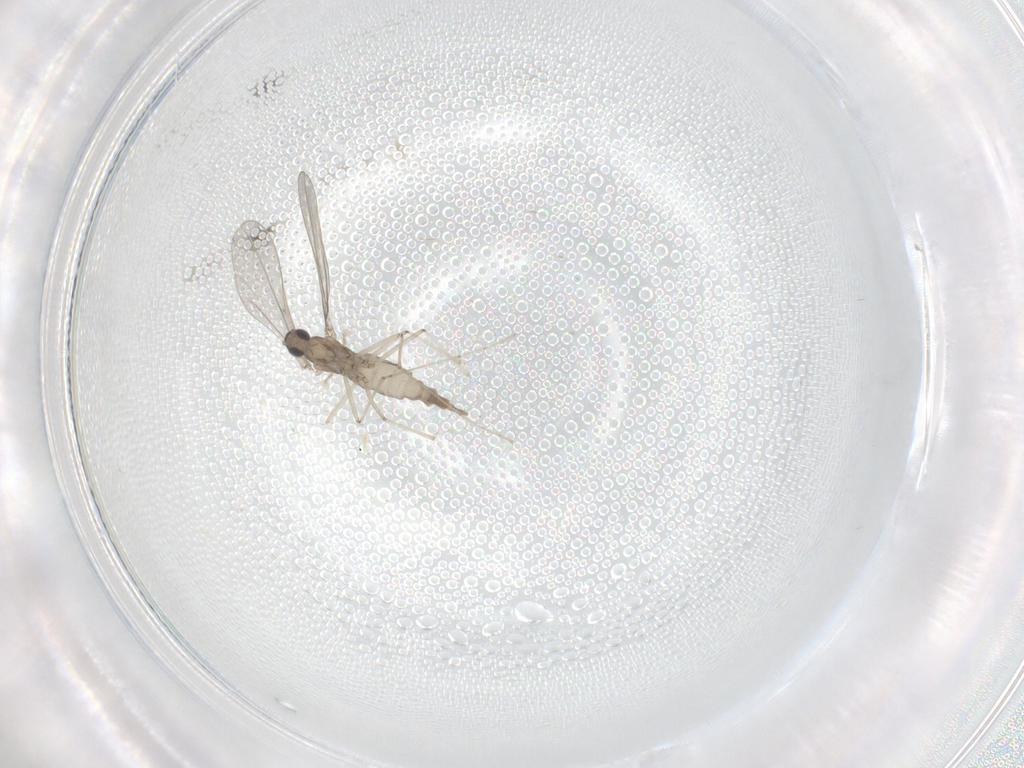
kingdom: Animalia
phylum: Arthropoda
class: Insecta
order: Diptera
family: Cecidomyiidae
